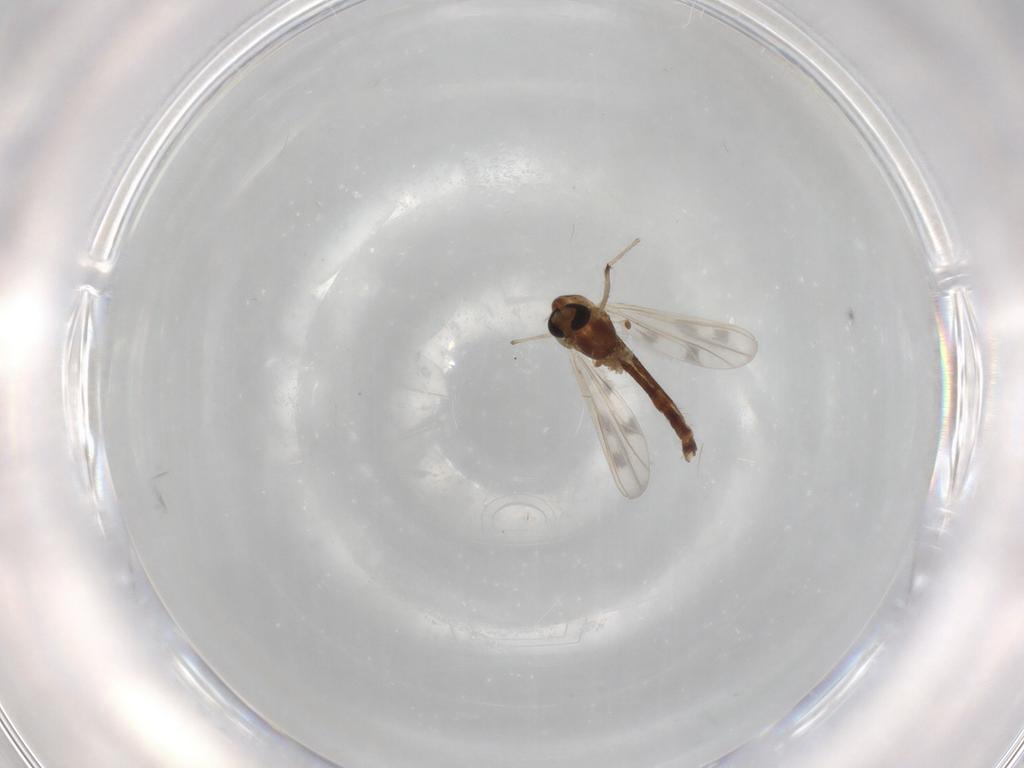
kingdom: Animalia
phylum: Arthropoda
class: Insecta
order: Diptera
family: Chironomidae
